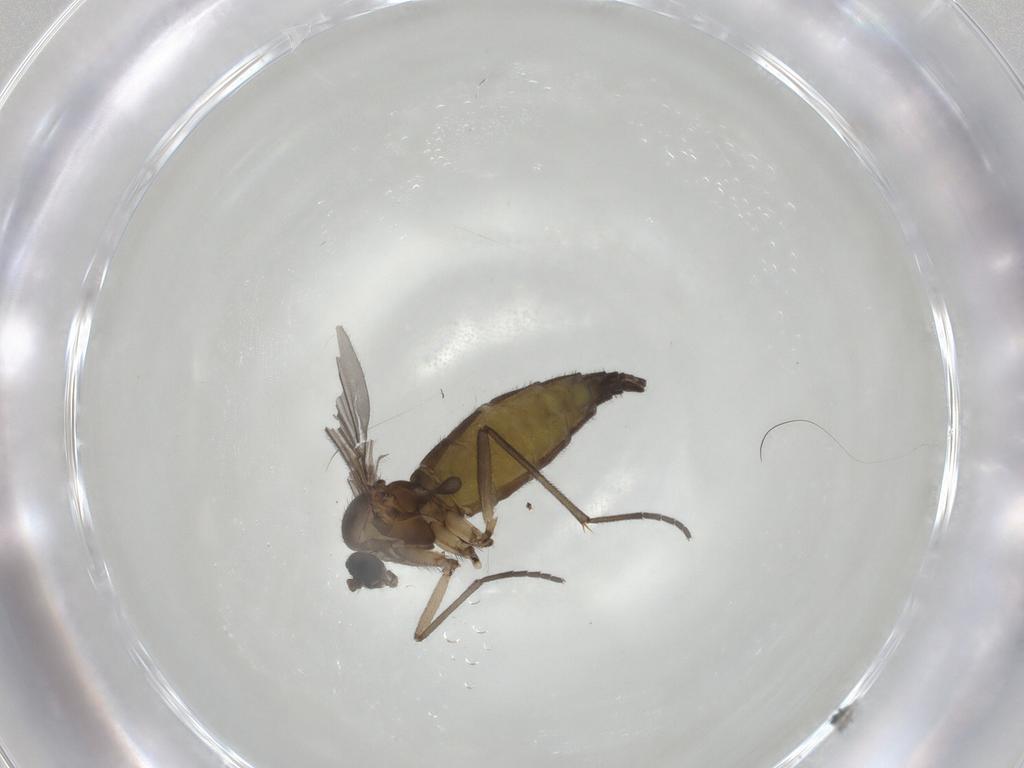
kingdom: Animalia
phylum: Arthropoda
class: Insecta
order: Diptera
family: Sciaridae
